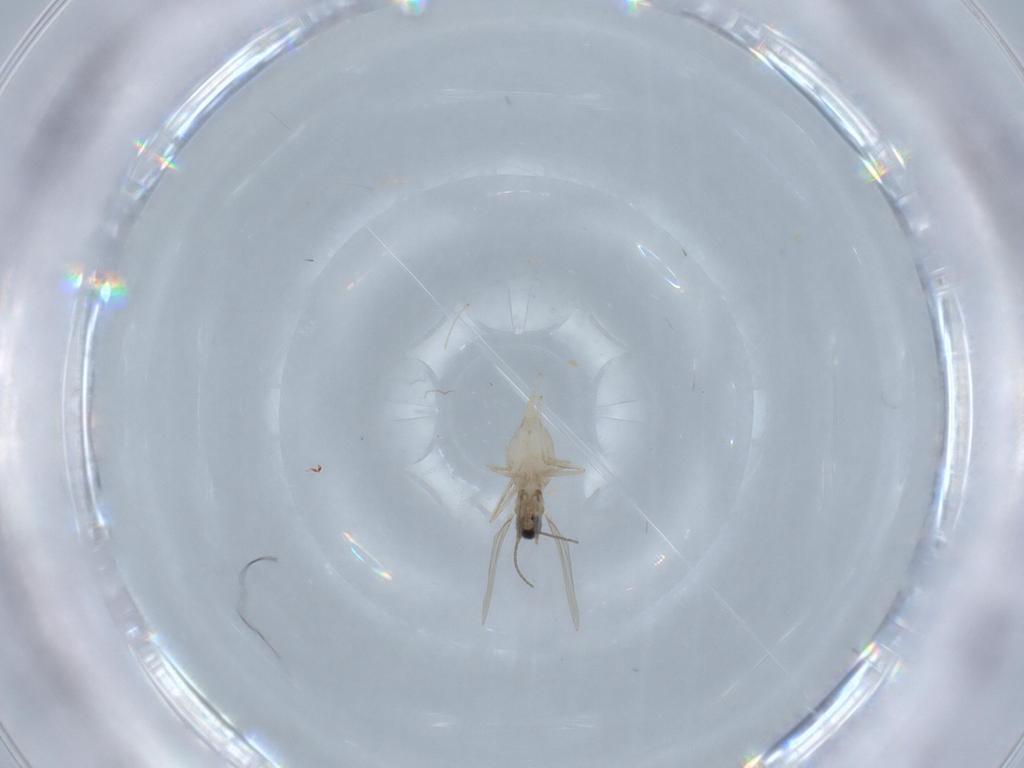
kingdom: Animalia
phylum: Arthropoda
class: Insecta
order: Diptera
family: Cecidomyiidae
